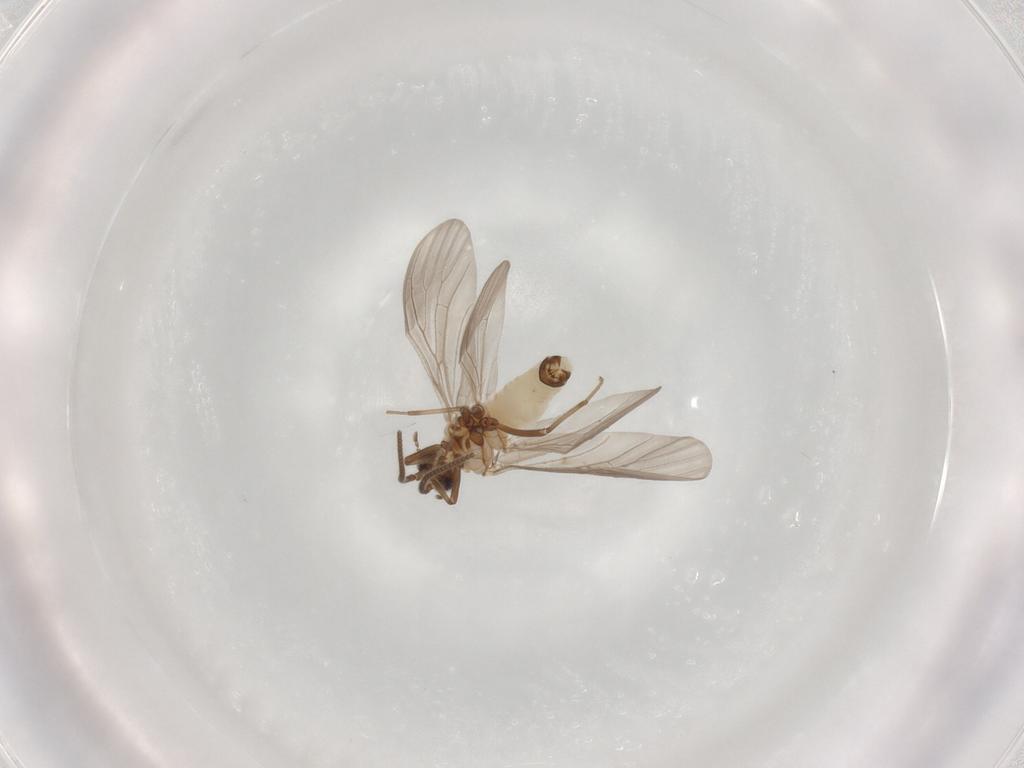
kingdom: Animalia
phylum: Arthropoda
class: Insecta
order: Neuroptera
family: Coniopterygidae
